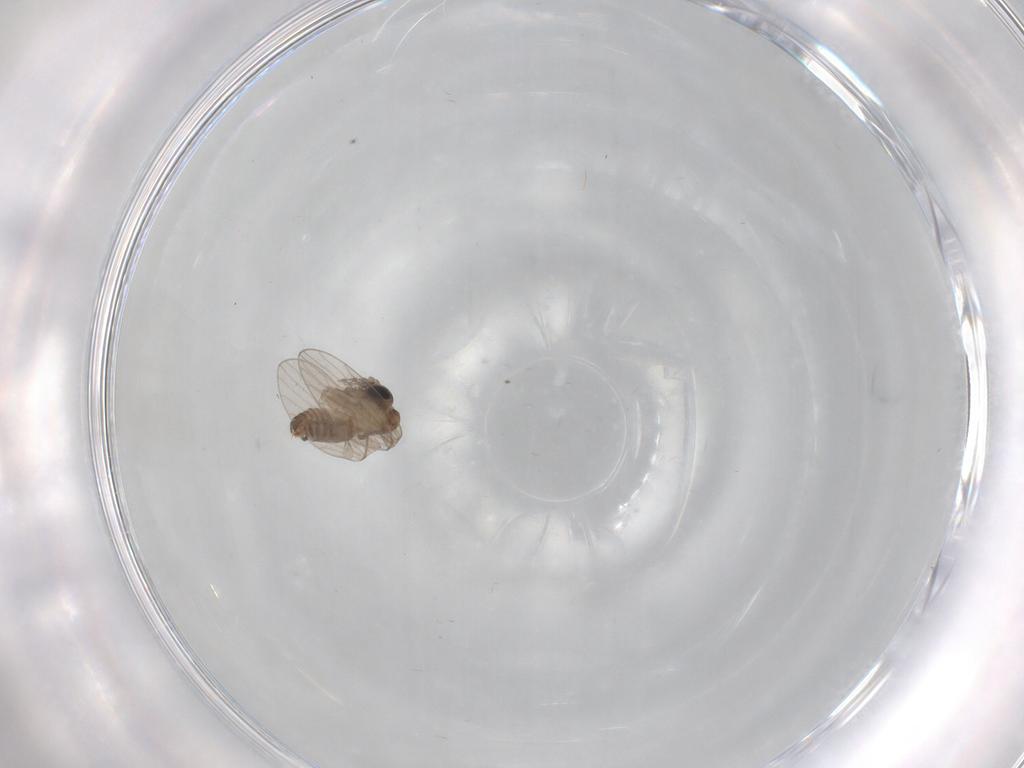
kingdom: Animalia
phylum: Arthropoda
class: Insecta
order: Diptera
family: Psychodidae
